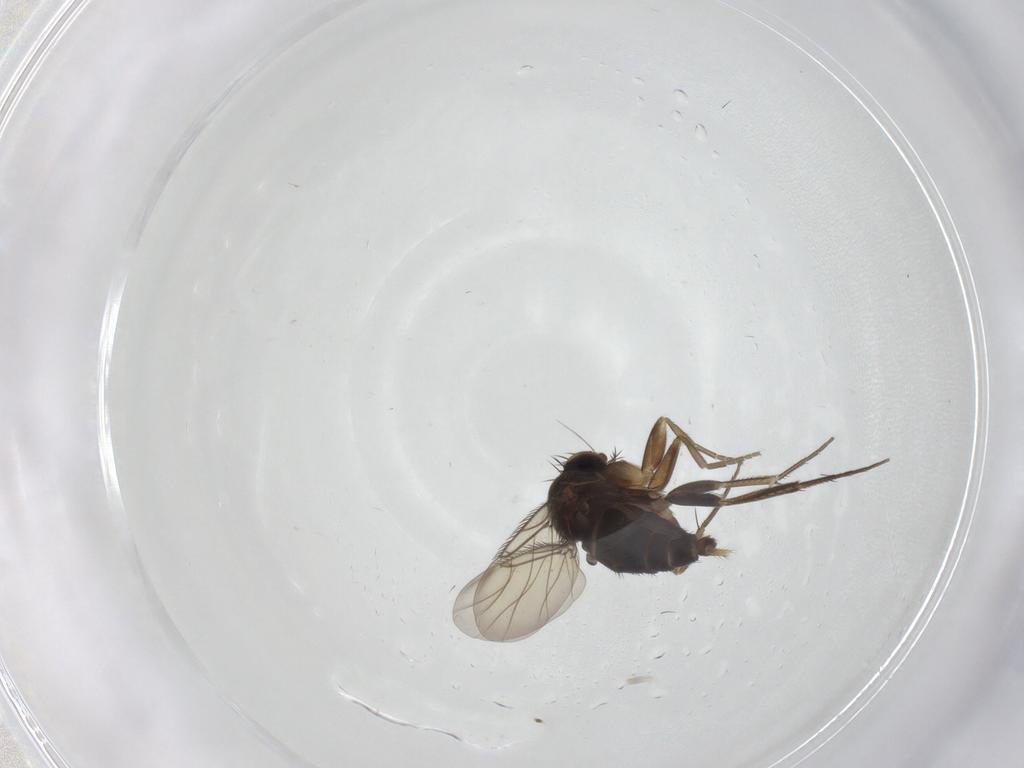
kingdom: Animalia
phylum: Arthropoda
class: Insecta
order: Diptera
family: Phoridae
